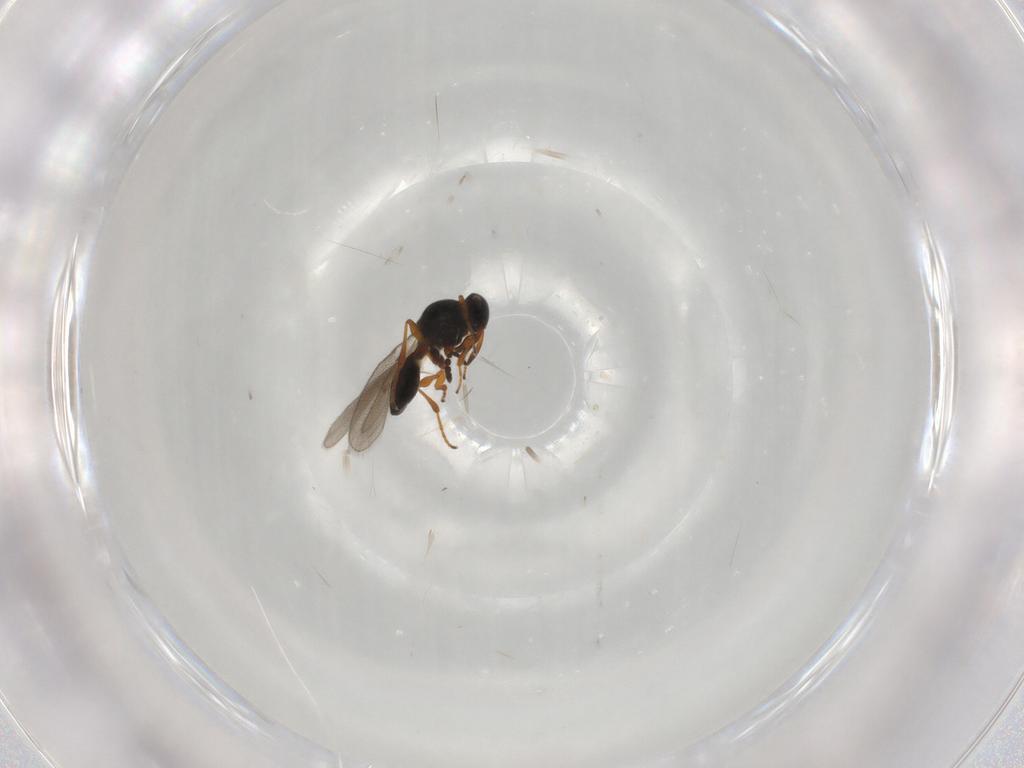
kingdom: Animalia
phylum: Arthropoda
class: Insecta
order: Hymenoptera
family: Platygastridae
